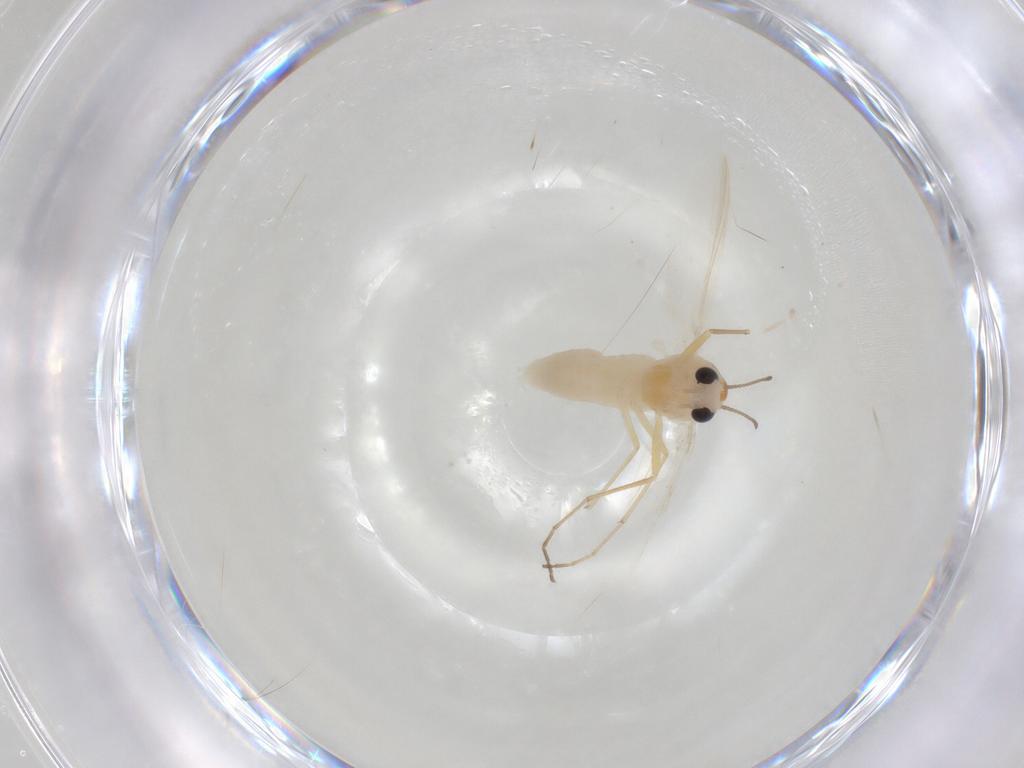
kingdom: Animalia
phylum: Arthropoda
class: Insecta
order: Diptera
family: Chironomidae
